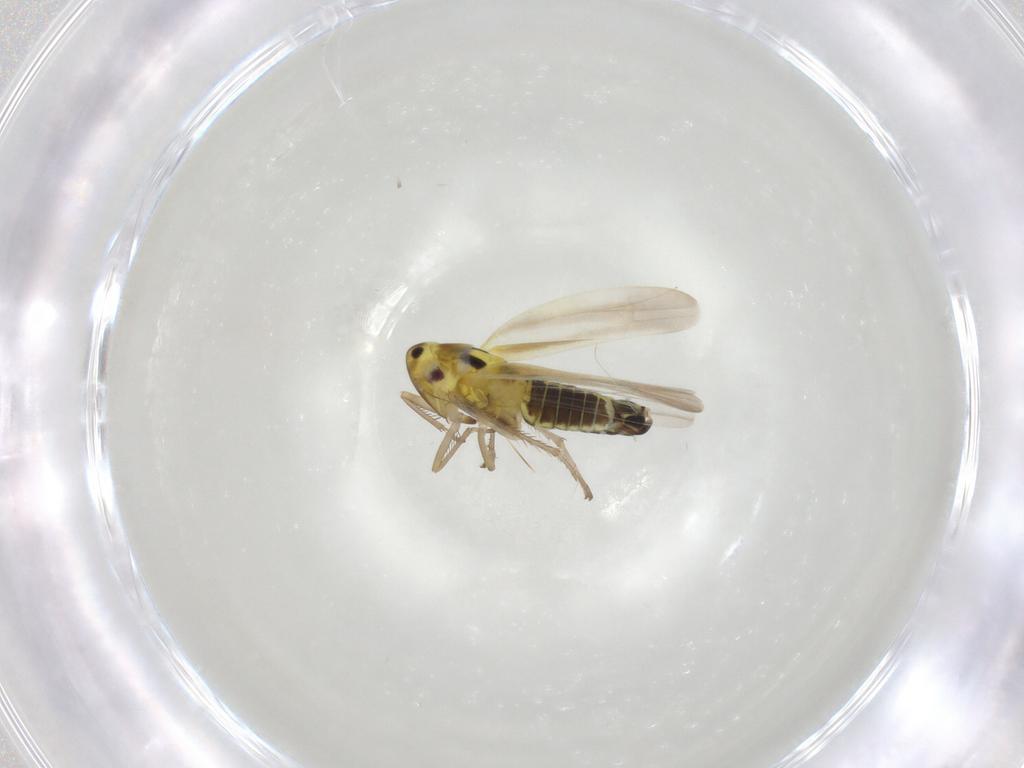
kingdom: Animalia
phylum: Arthropoda
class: Insecta
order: Hemiptera
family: Cicadellidae
